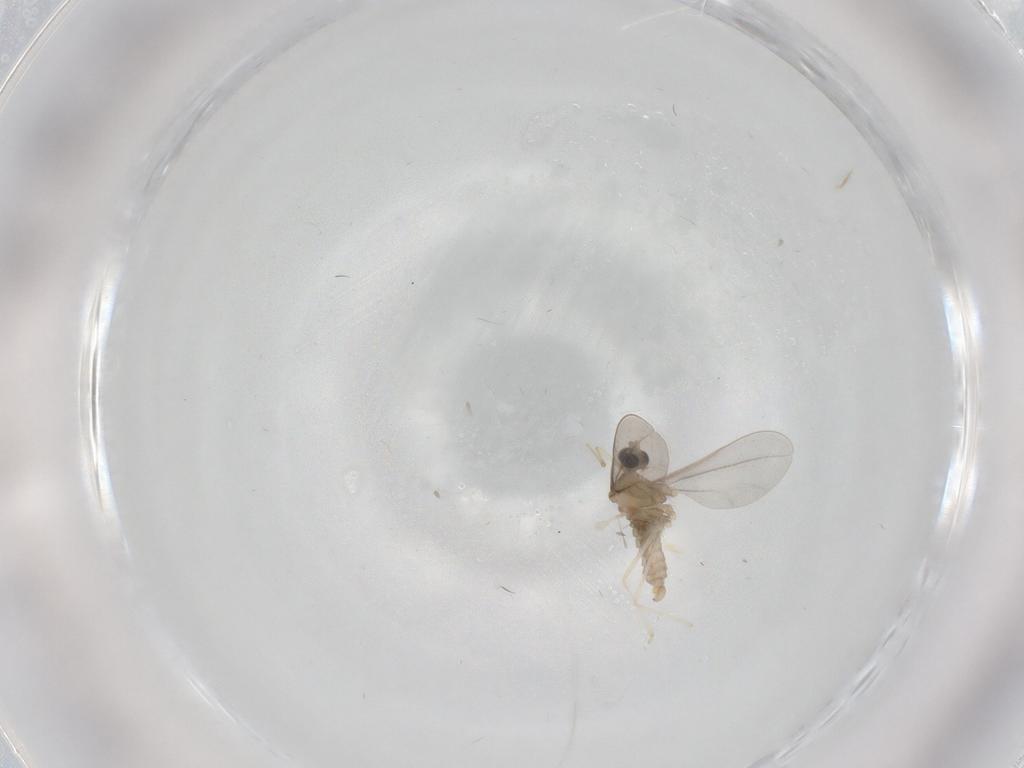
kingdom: Animalia
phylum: Arthropoda
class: Insecta
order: Diptera
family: Cecidomyiidae
